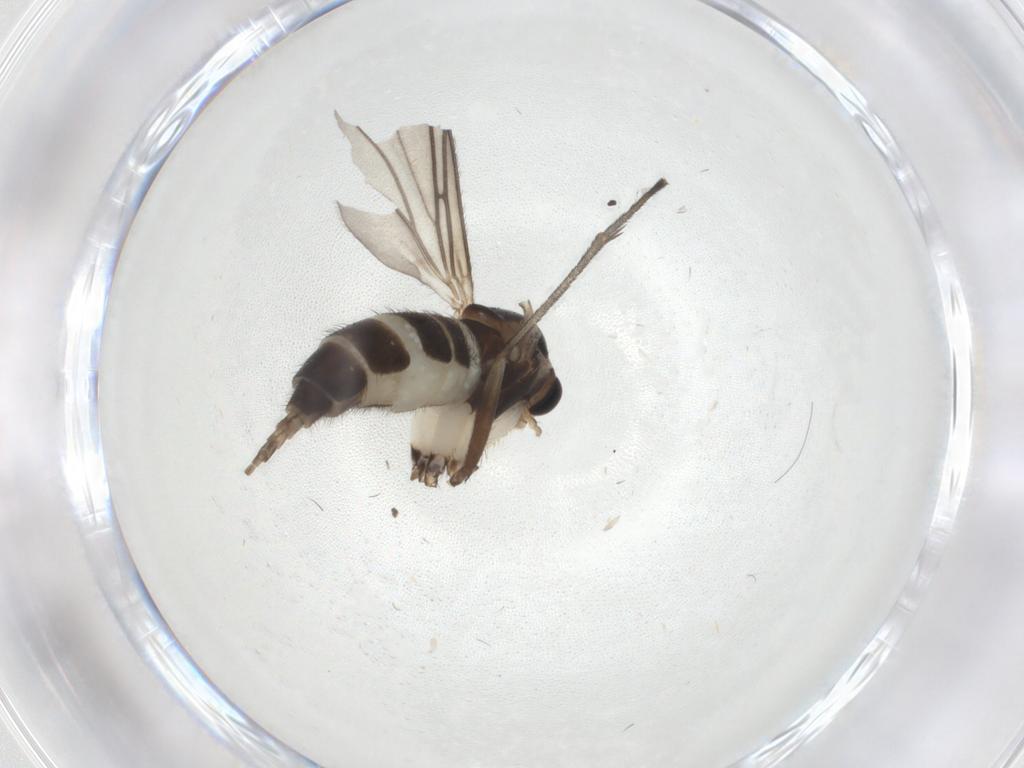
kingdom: Animalia
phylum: Arthropoda
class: Insecta
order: Diptera
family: Sciaridae
